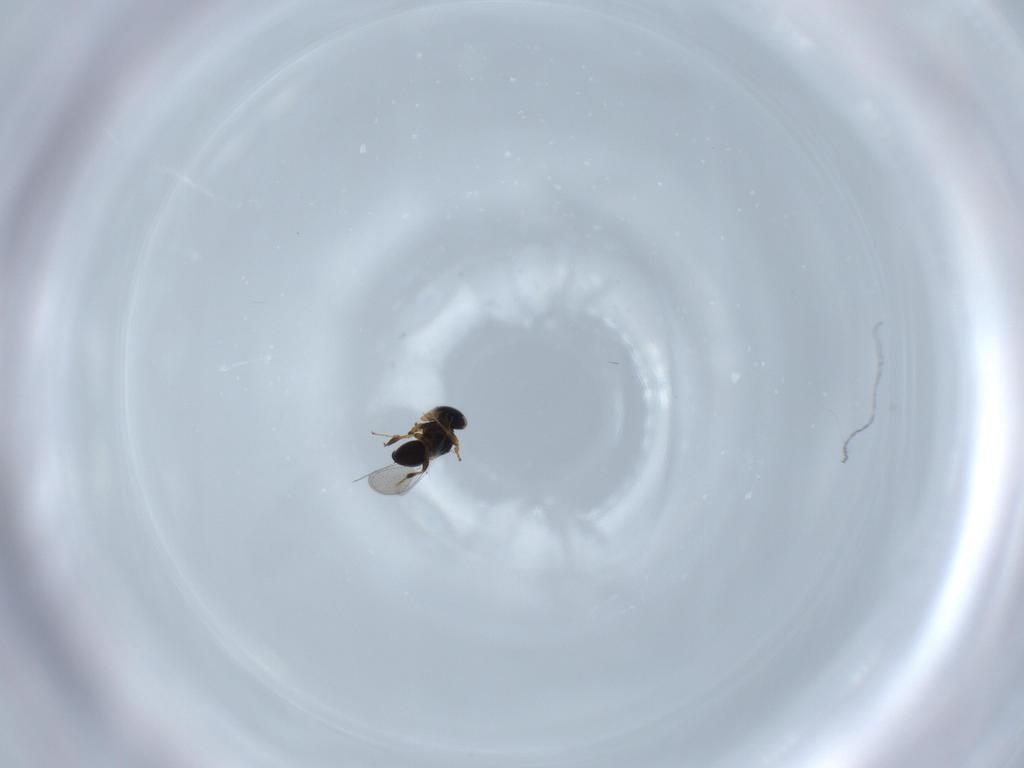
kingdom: Animalia
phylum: Arthropoda
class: Insecta
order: Hymenoptera
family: Platygastridae
